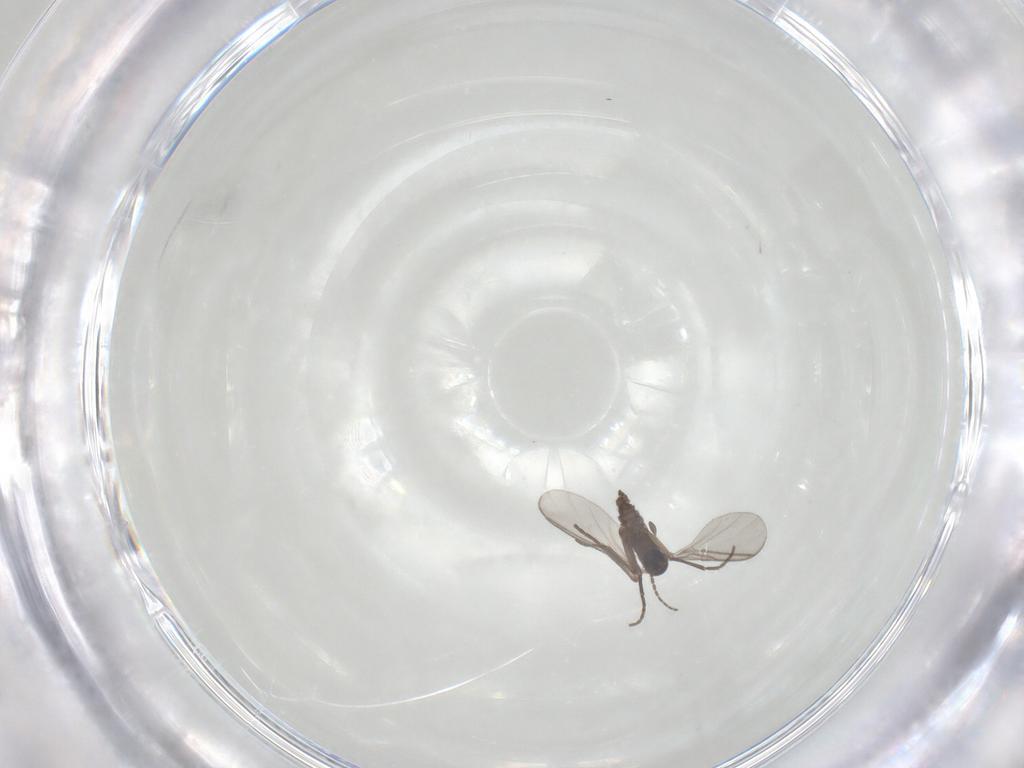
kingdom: Animalia
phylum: Arthropoda
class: Insecta
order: Diptera
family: Sciaridae
